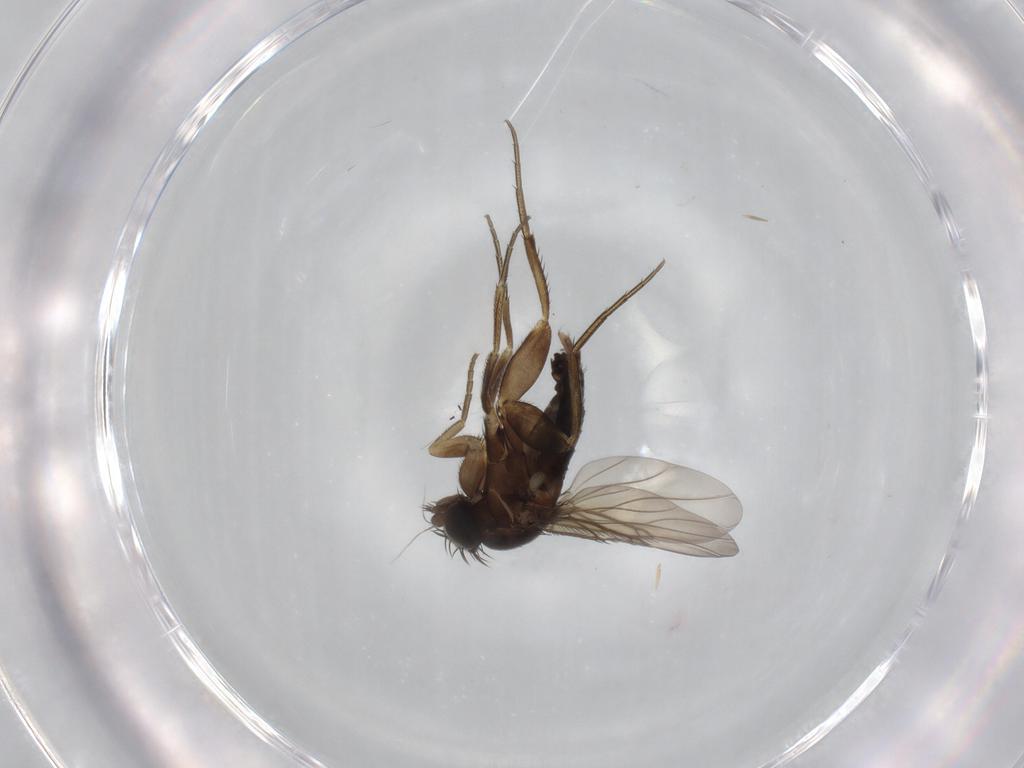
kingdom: Animalia
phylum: Arthropoda
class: Insecta
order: Diptera
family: Phoridae
